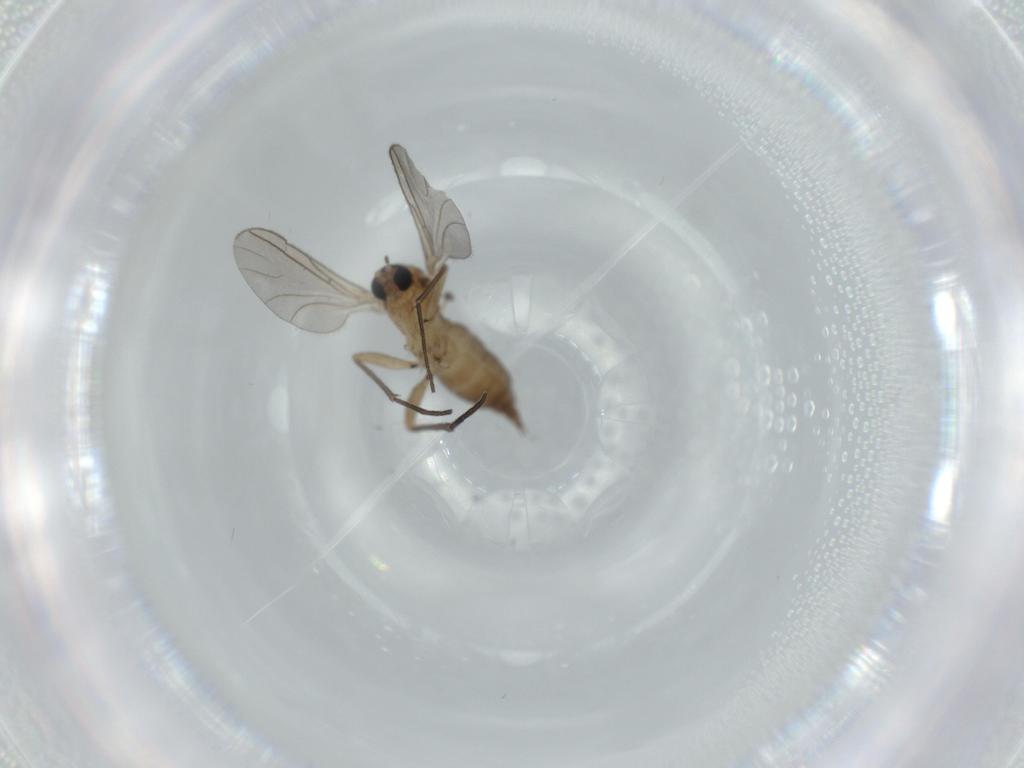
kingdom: Animalia
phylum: Arthropoda
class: Insecta
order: Diptera
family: Sciaridae
